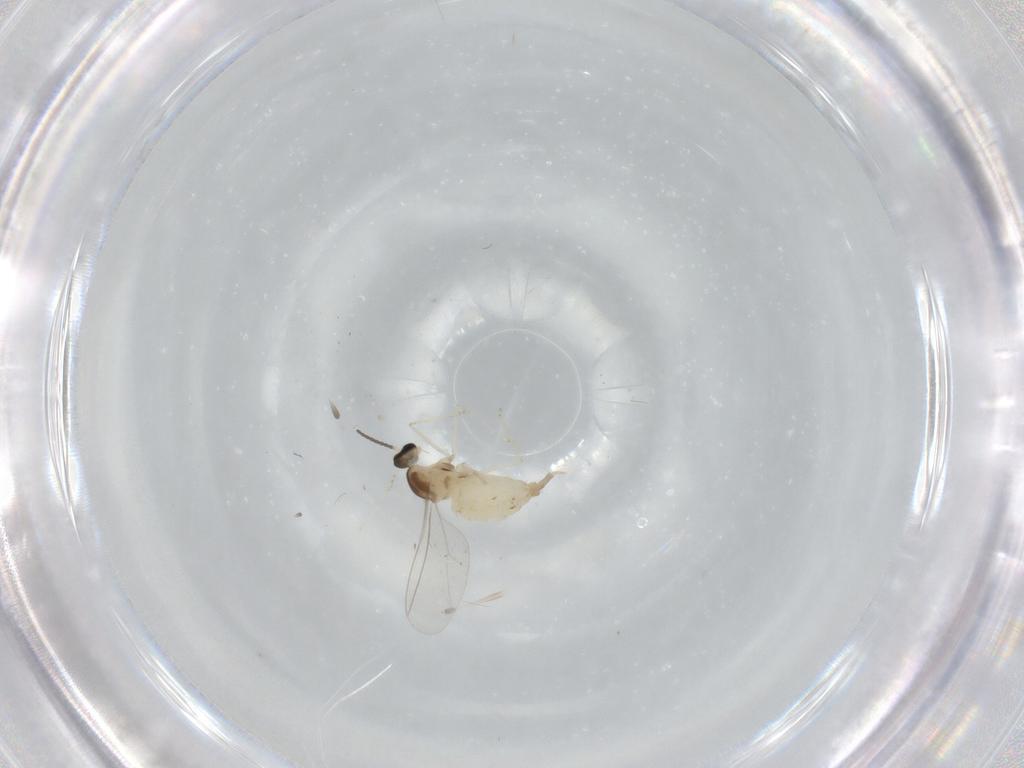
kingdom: Animalia
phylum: Arthropoda
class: Insecta
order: Diptera
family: Cecidomyiidae
